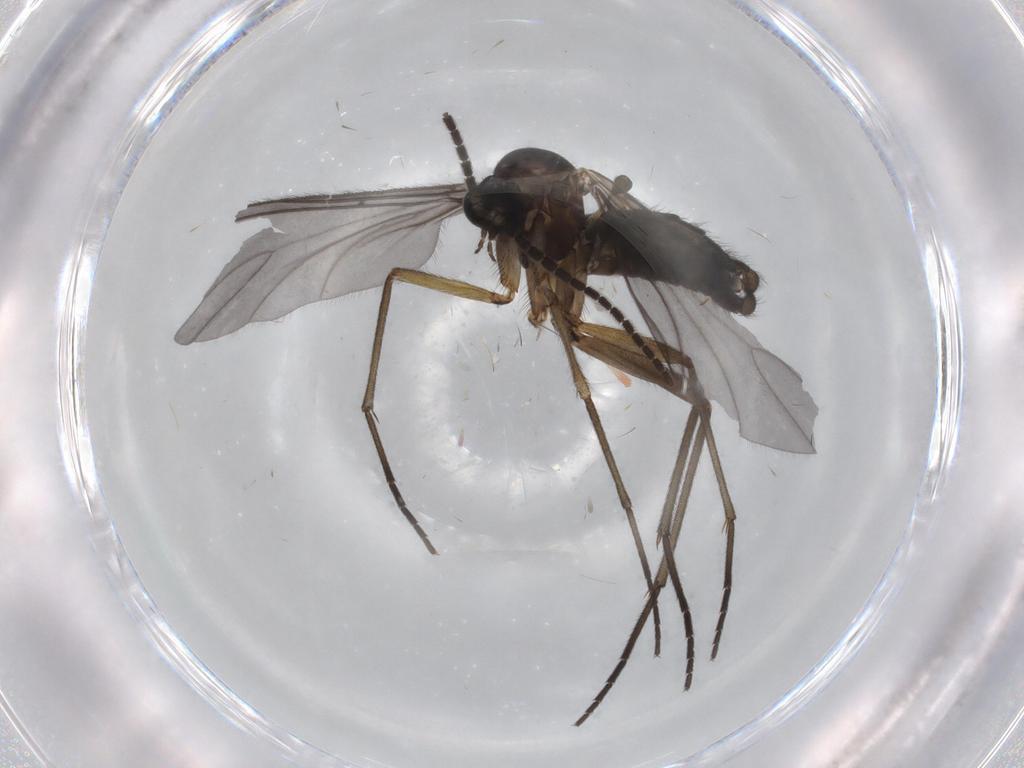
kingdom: Animalia
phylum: Arthropoda
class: Insecta
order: Diptera
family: Sciaridae
